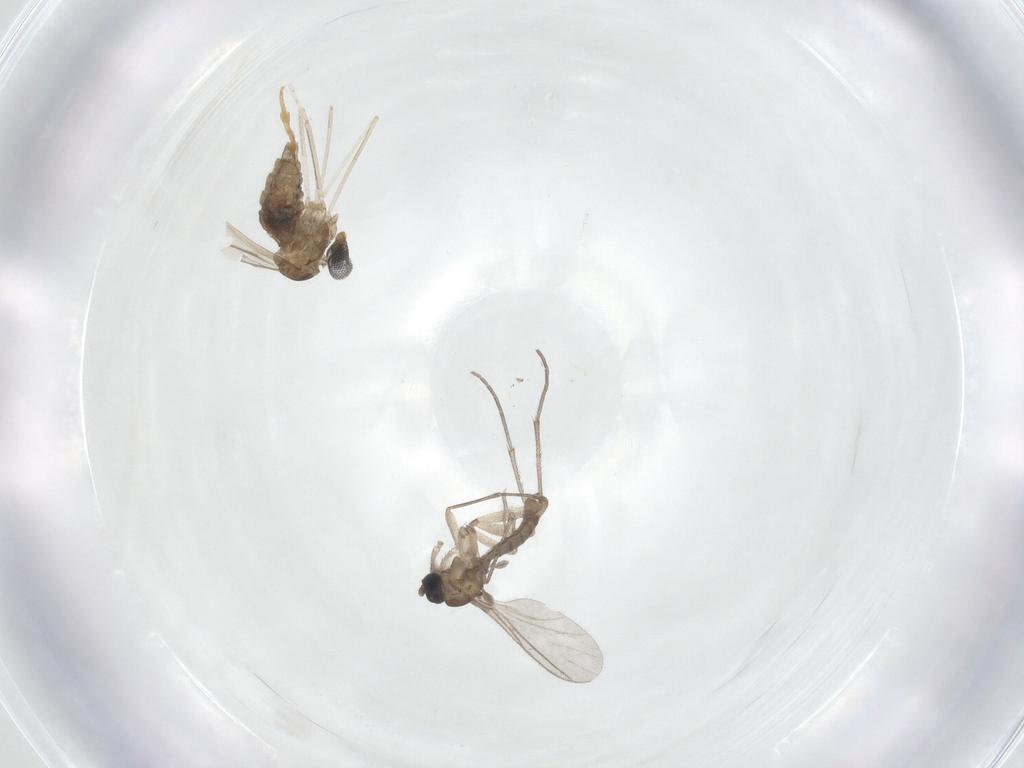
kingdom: Animalia
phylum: Arthropoda
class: Insecta
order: Diptera
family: Cecidomyiidae
